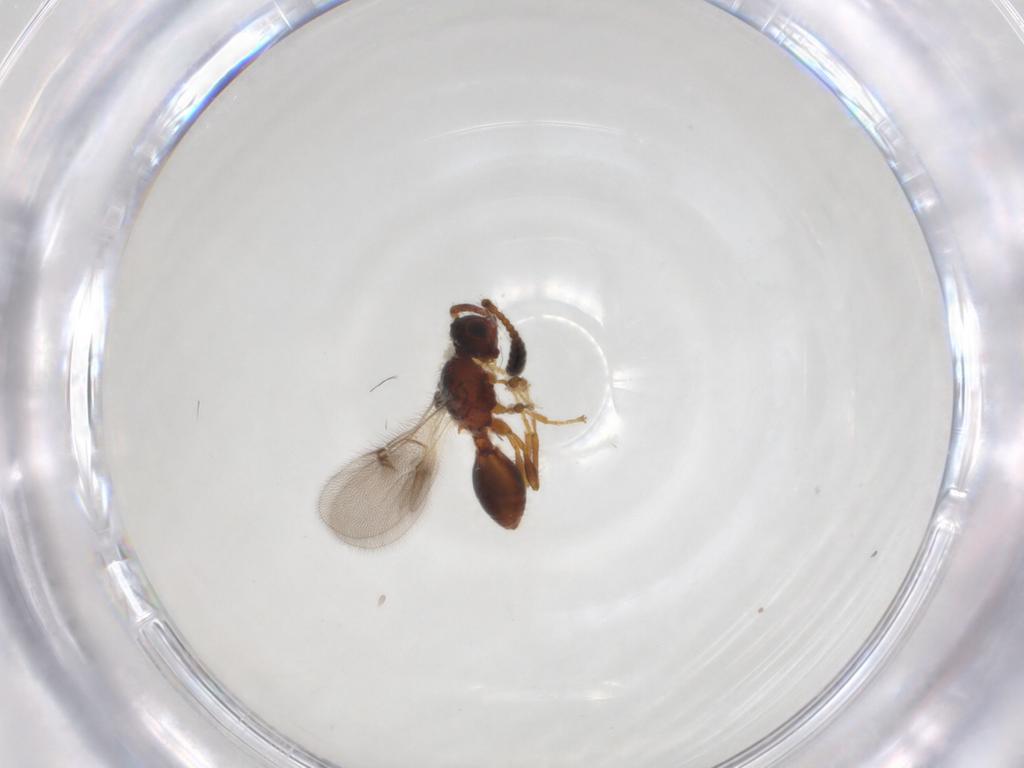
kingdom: Animalia
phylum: Arthropoda
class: Insecta
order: Hymenoptera
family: Diapriidae
